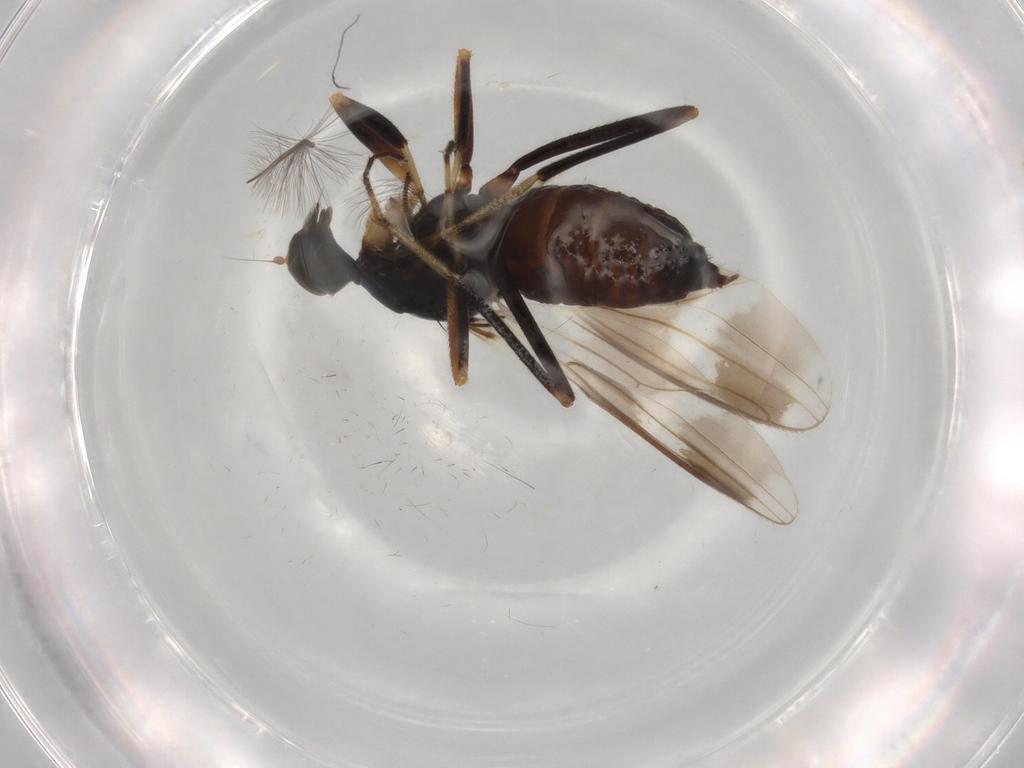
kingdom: Animalia
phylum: Arthropoda
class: Insecta
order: Diptera
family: Hybotidae
